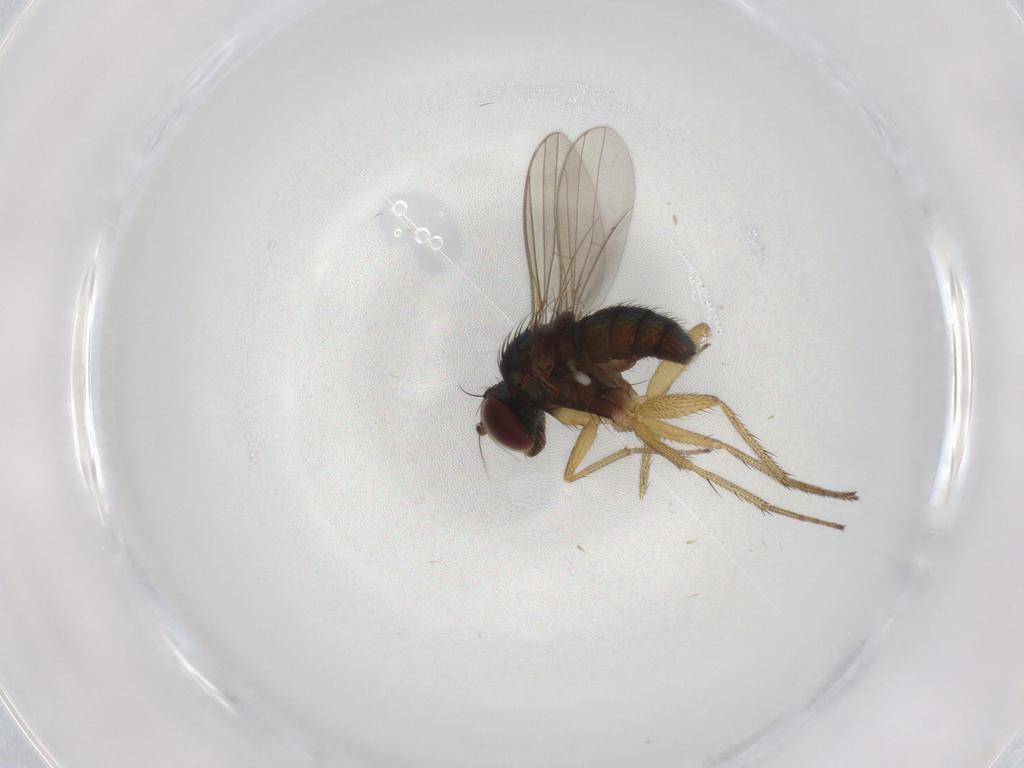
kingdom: Animalia
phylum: Arthropoda
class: Insecta
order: Diptera
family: Dolichopodidae
